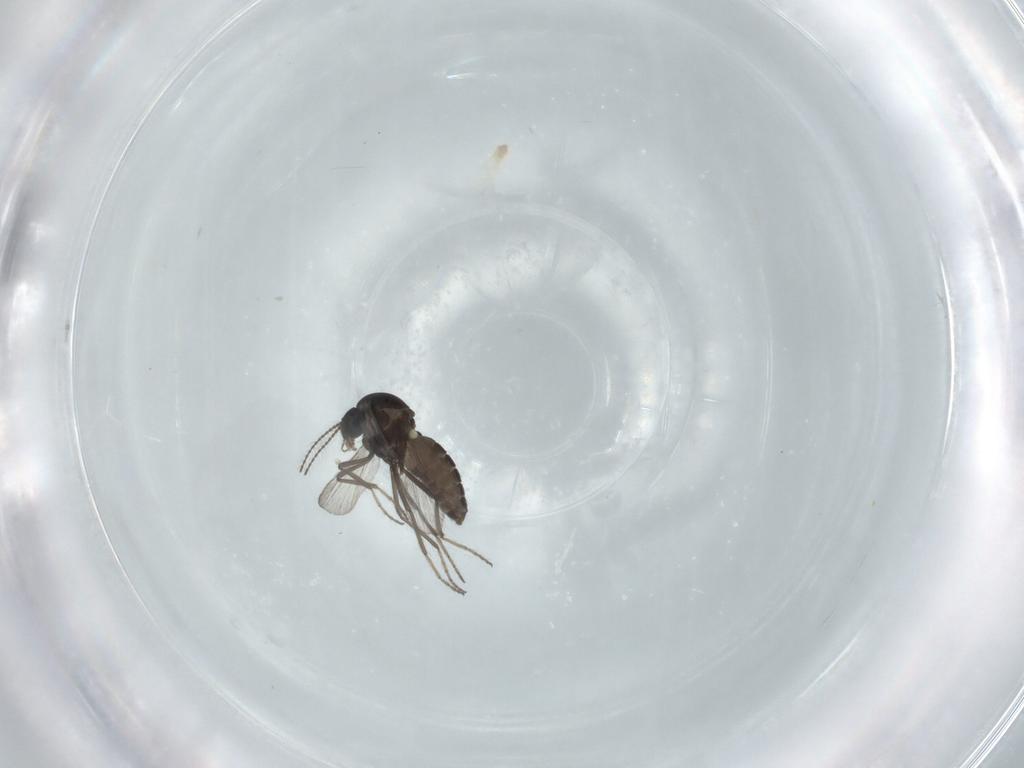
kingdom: Animalia
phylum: Arthropoda
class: Insecta
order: Diptera
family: Ceratopogonidae
